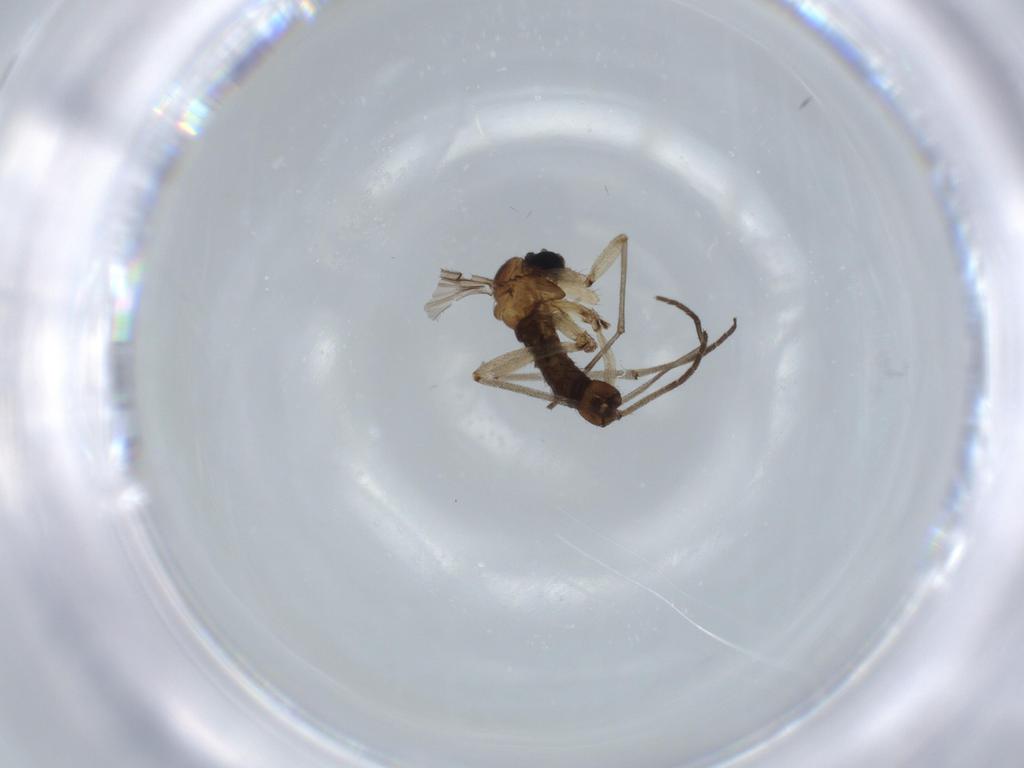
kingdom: Animalia
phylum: Arthropoda
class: Insecta
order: Diptera
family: Sciaridae
